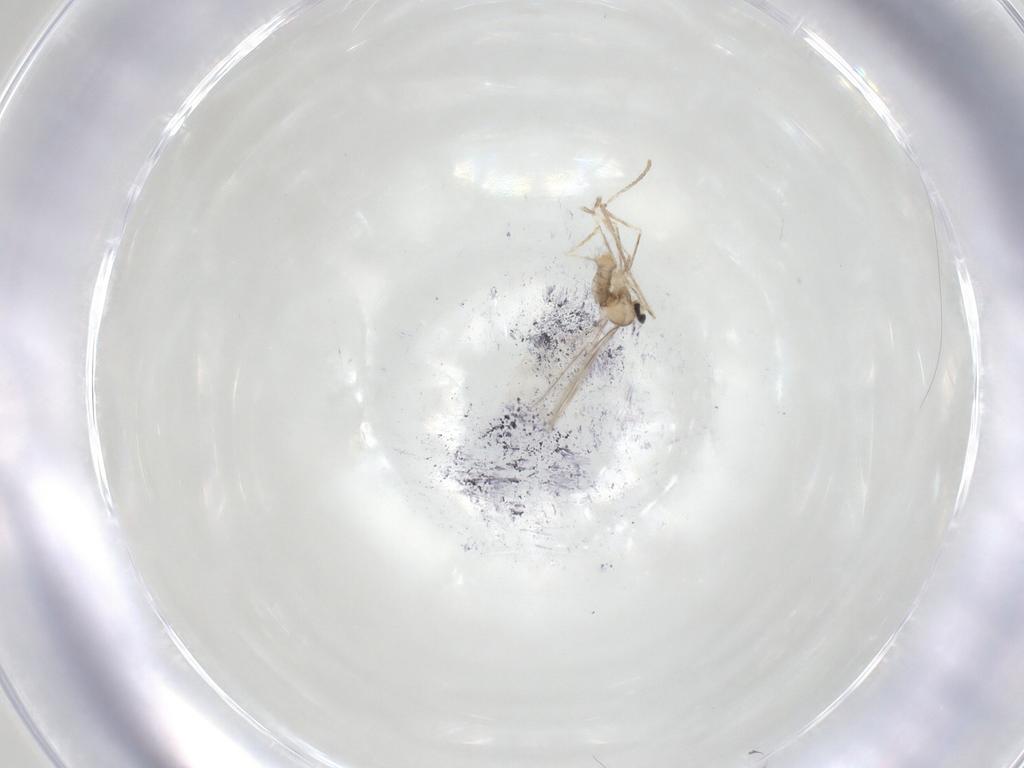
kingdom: Animalia
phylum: Arthropoda
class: Insecta
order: Diptera
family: Cecidomyiidae
